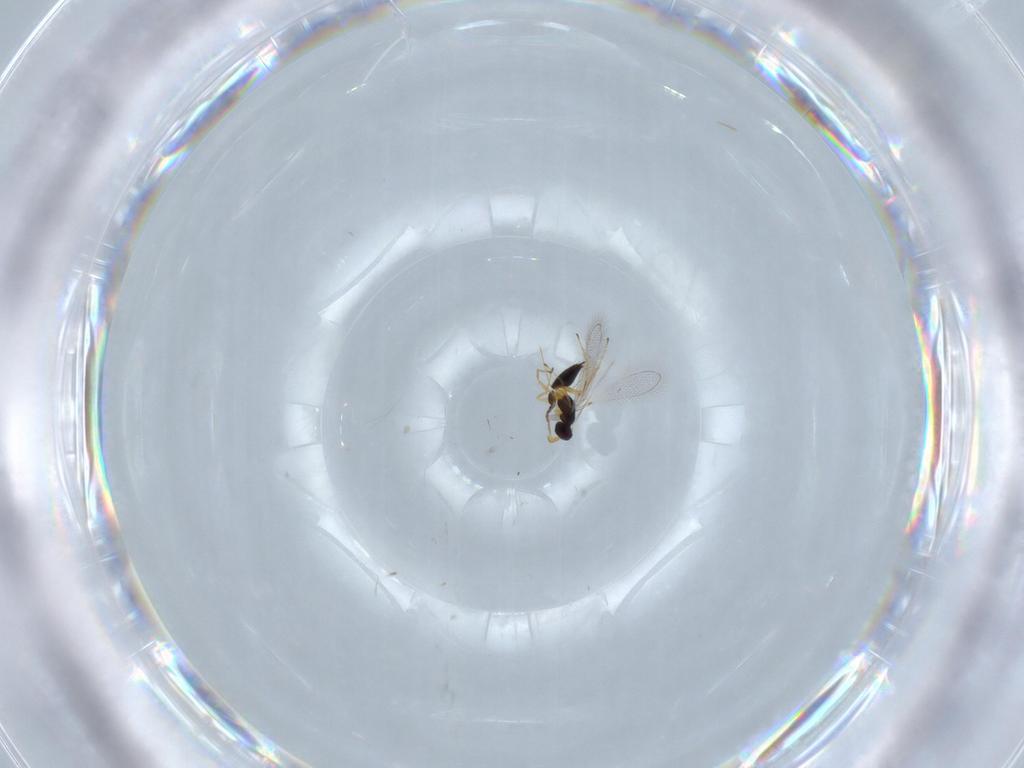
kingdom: Animalia
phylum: Arthropoda
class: Insecta
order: Hymenoptera
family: Mymaridae
